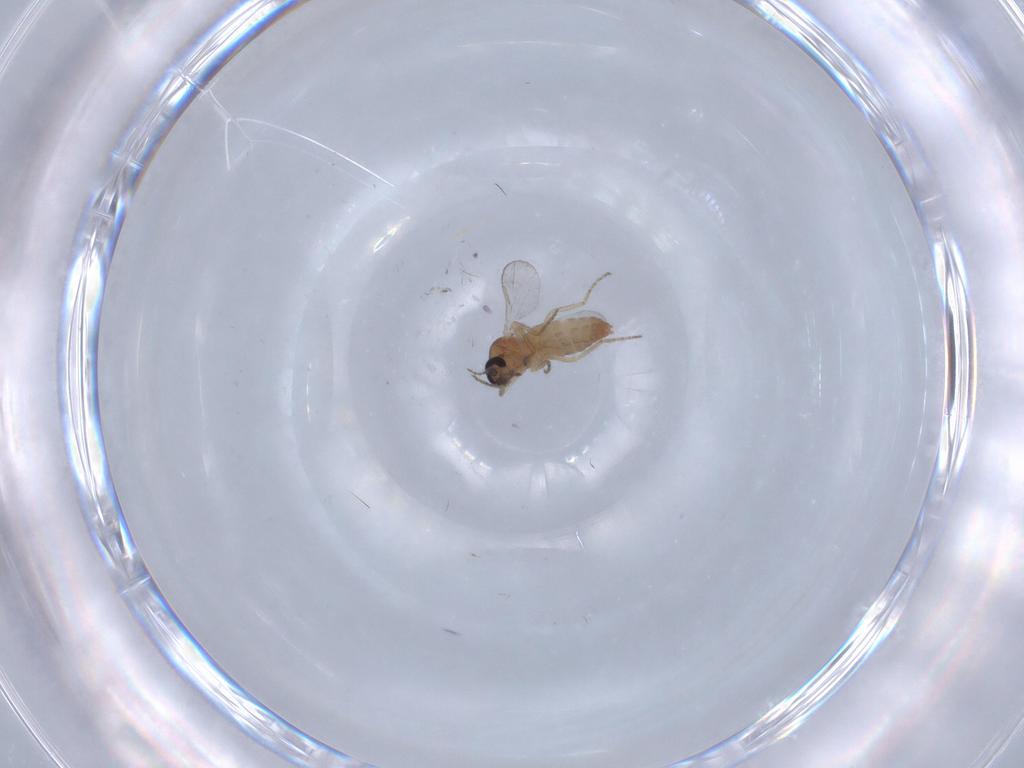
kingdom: Animalia
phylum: Arthropoda
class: Insecta
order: Diptera
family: Ceratopogonidae
